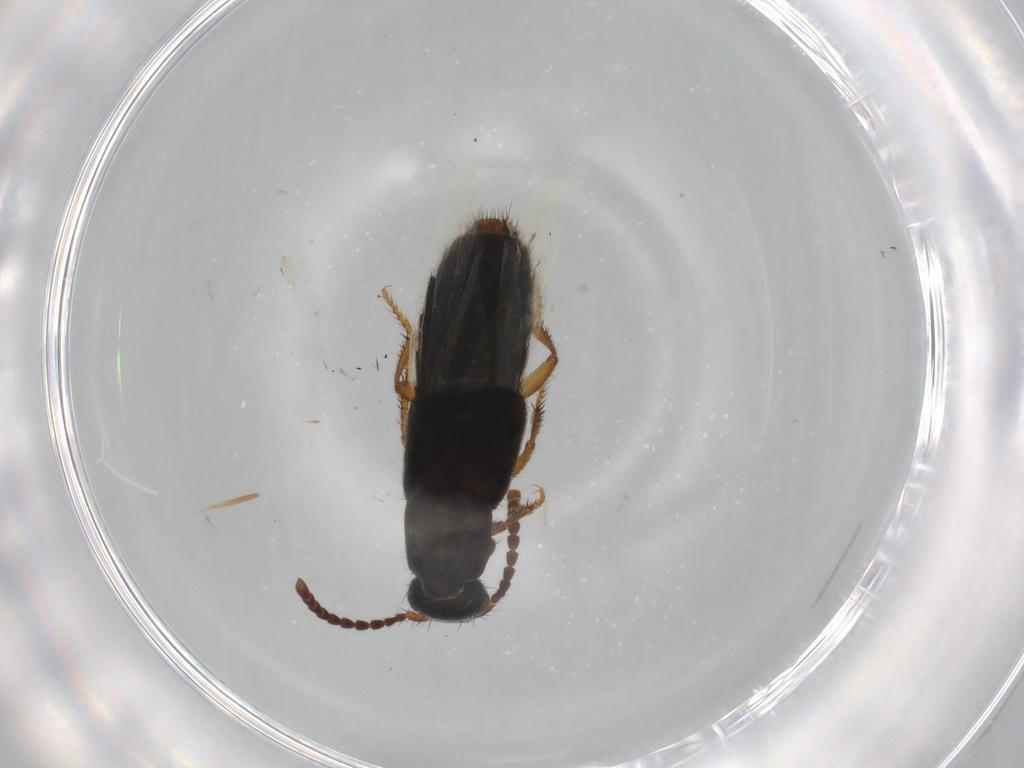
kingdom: Animalia
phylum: Arthropoda
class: Insecta
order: Coleoptera
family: Staphylinidae
